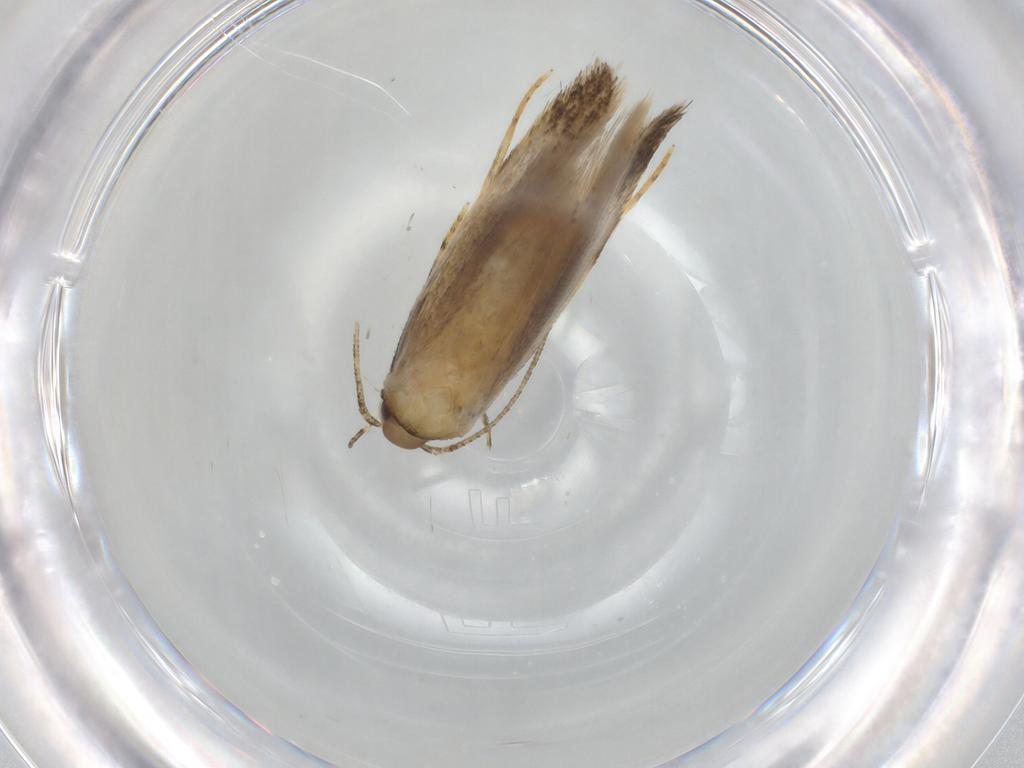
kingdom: Animalia
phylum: Arthropoda
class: Insecta
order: Lepidoptera
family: Autostichidae
